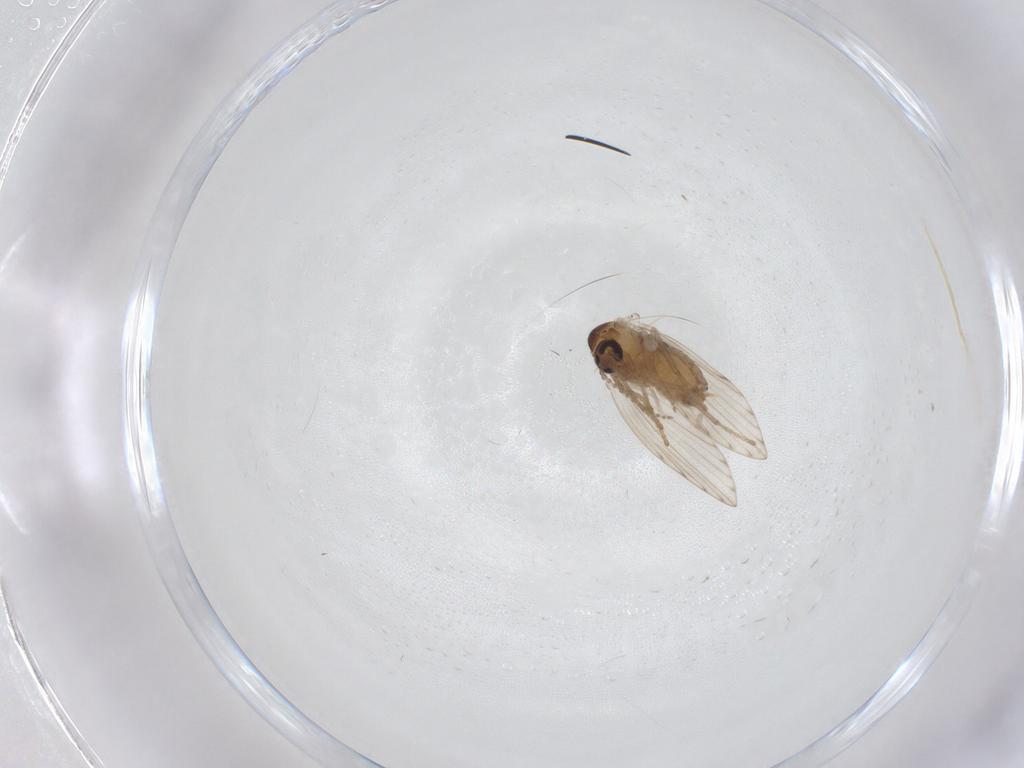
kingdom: Animalia
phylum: Arthropoda
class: Insecta
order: Diptera
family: Psychodidae
